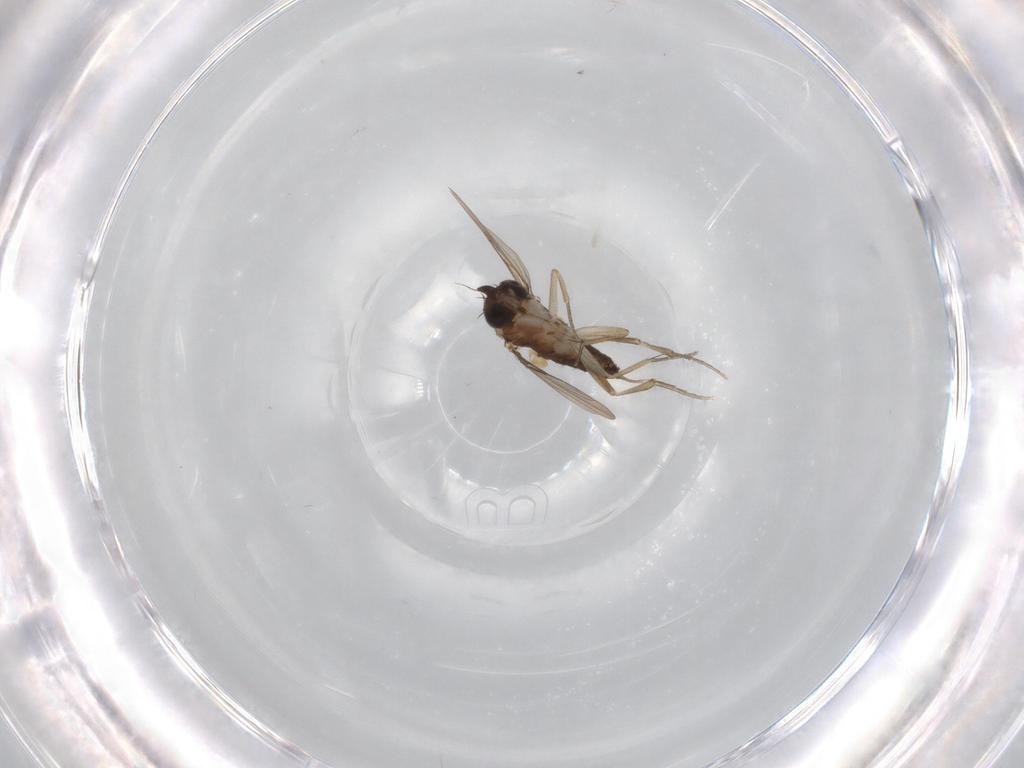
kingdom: Animalia
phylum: Arthropoda
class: Insecta
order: Diptera
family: Phoridae
